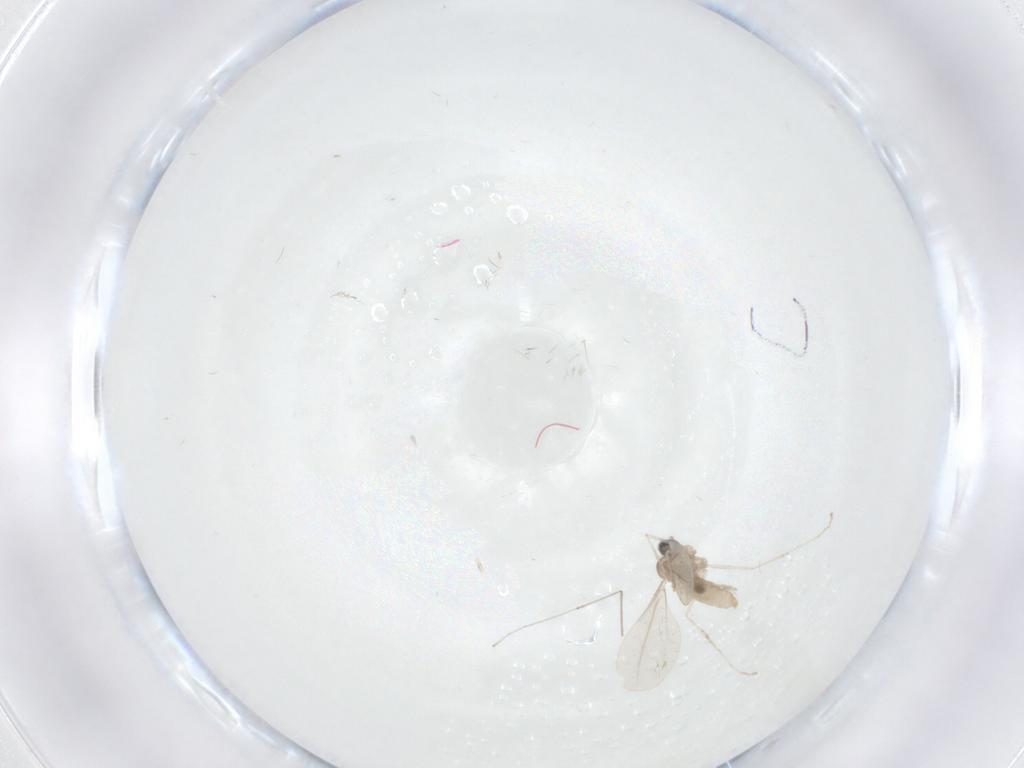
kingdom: Animalia
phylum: Arthropoda
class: Insecta
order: Diptera
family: Cecidomyiidae
